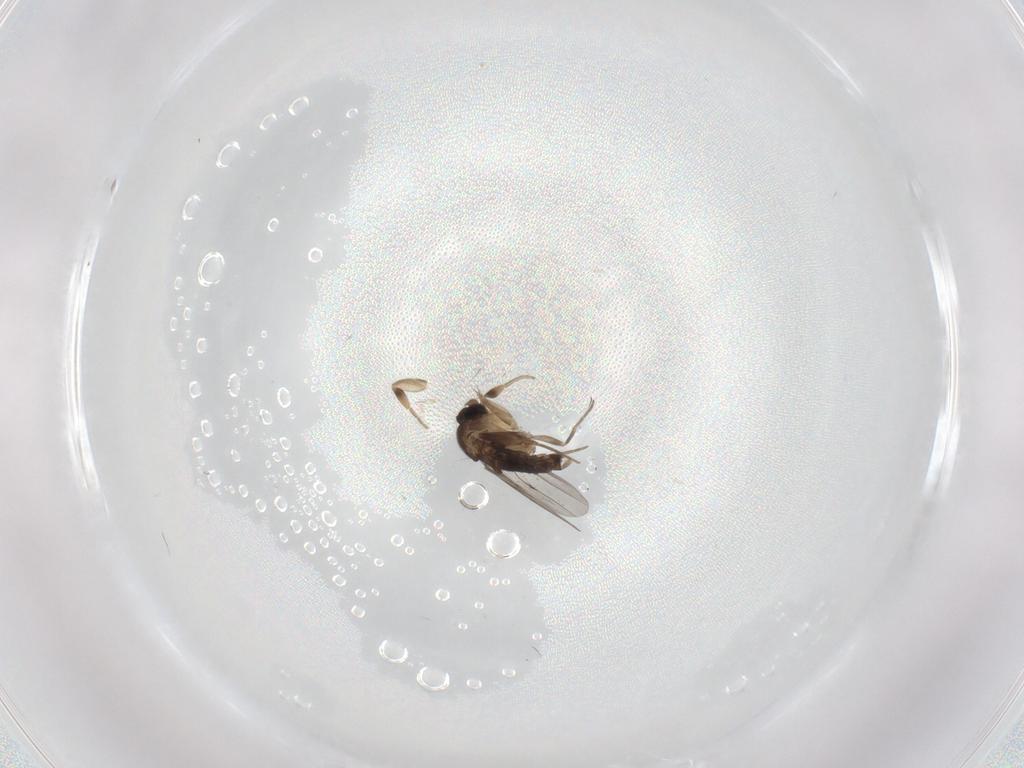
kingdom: Animalia
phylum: Arthropoda
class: Insecta
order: Diptera
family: Phoridae
